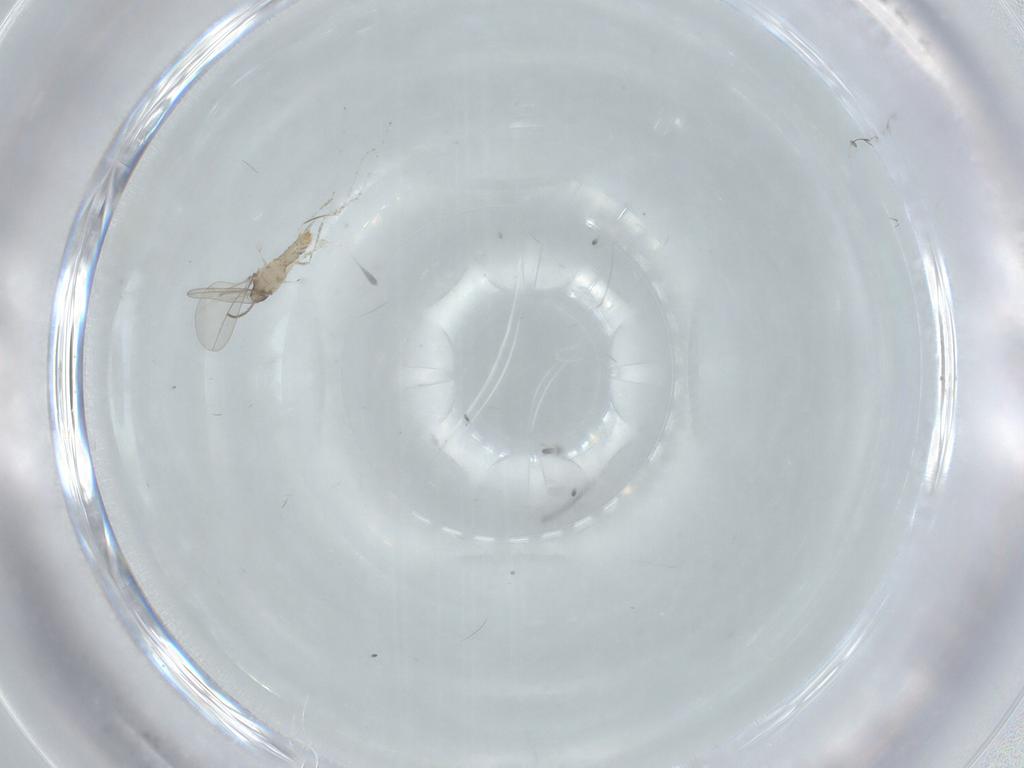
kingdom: Animalia
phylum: Arthropoda
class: Insecta
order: Diptera
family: Cecidomyiidae
